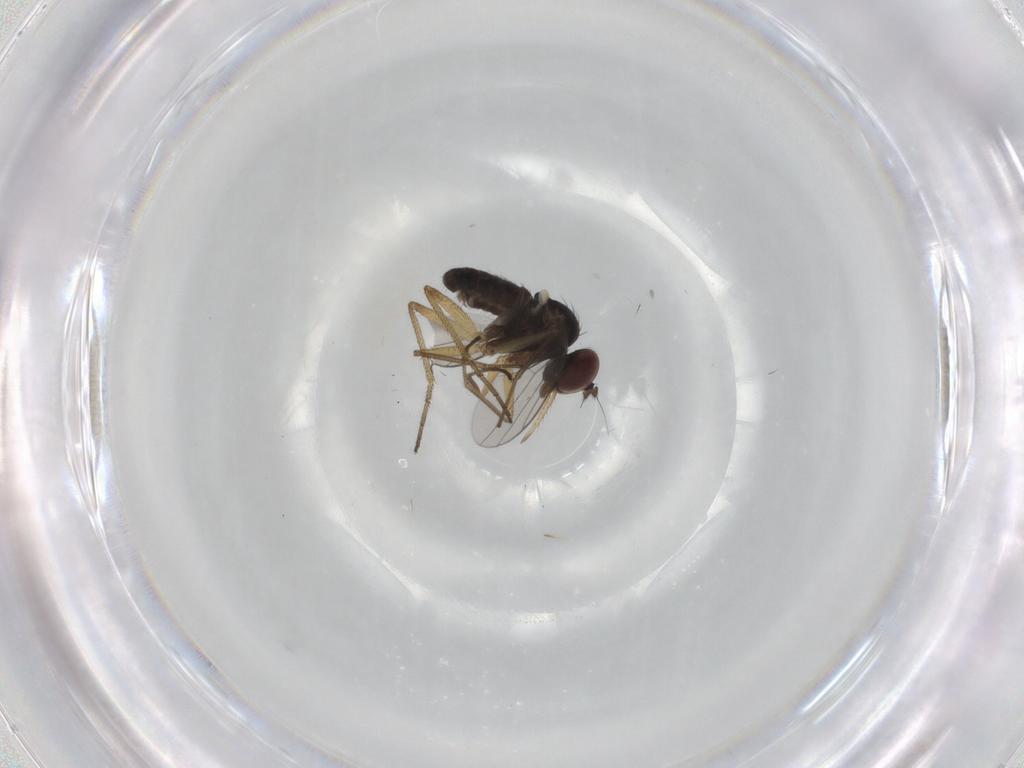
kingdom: Animalia
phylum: Arthropoda
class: Insecta
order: Diptera
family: Dolichopodidae
